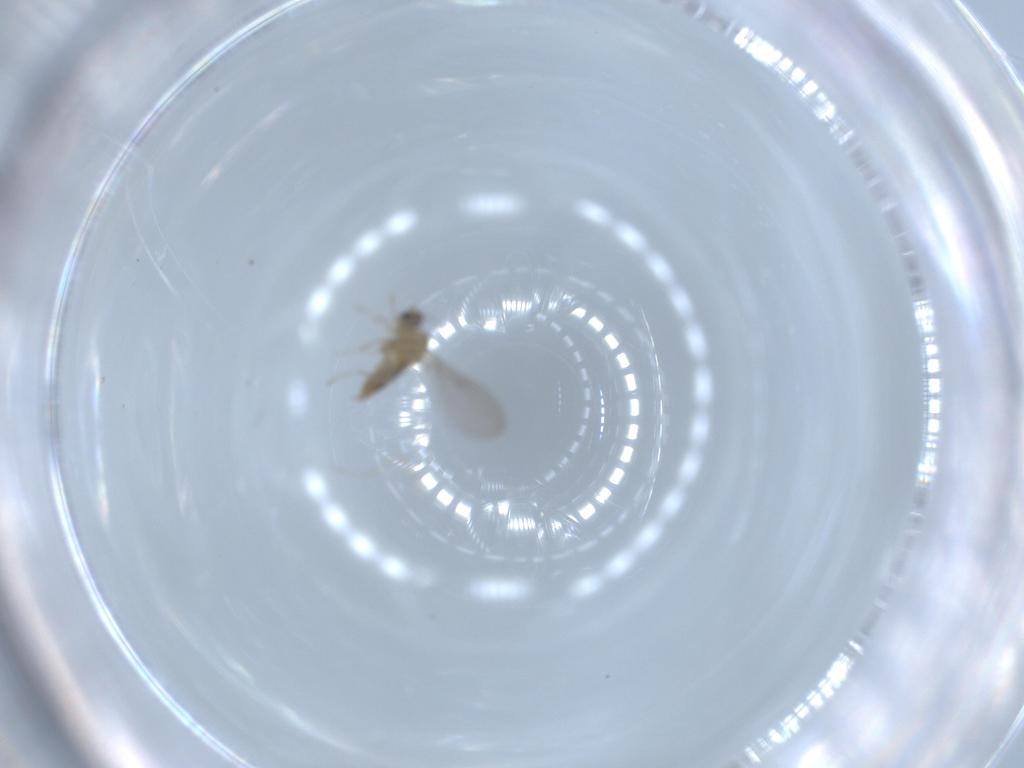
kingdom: Animalia
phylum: Arthropoda
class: Insecta
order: Diptera
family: Cecidomyiidae
